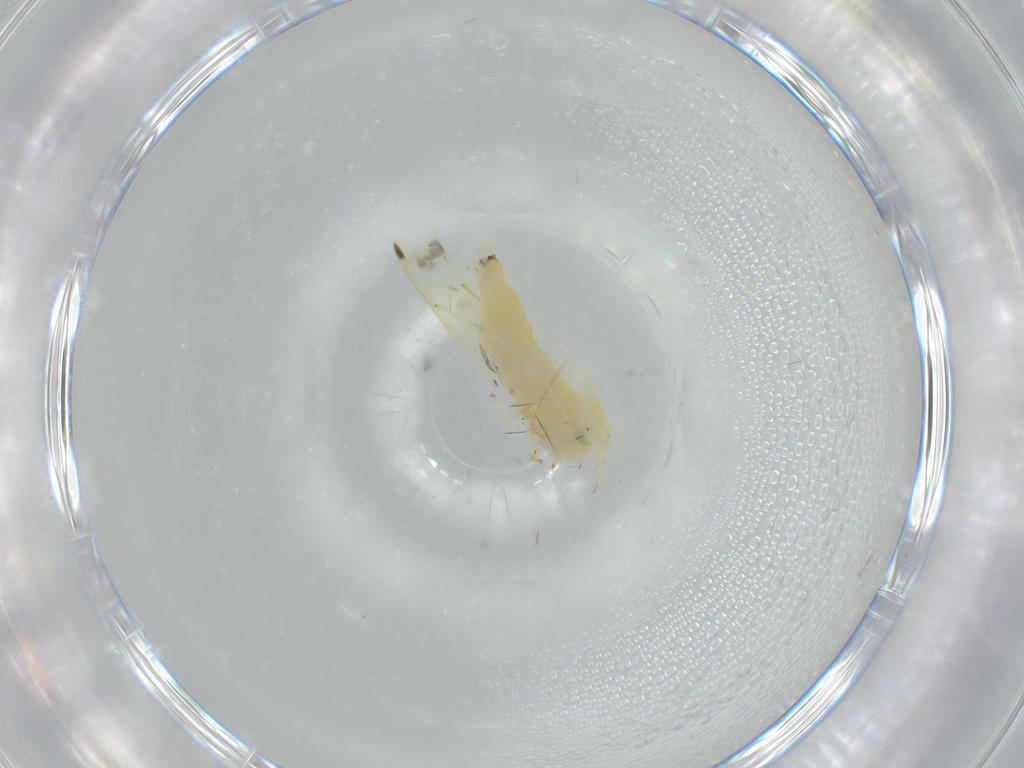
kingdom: Animalia
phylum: Arthropoda
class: Insecta
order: Hemiptera
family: Cicadellidae
